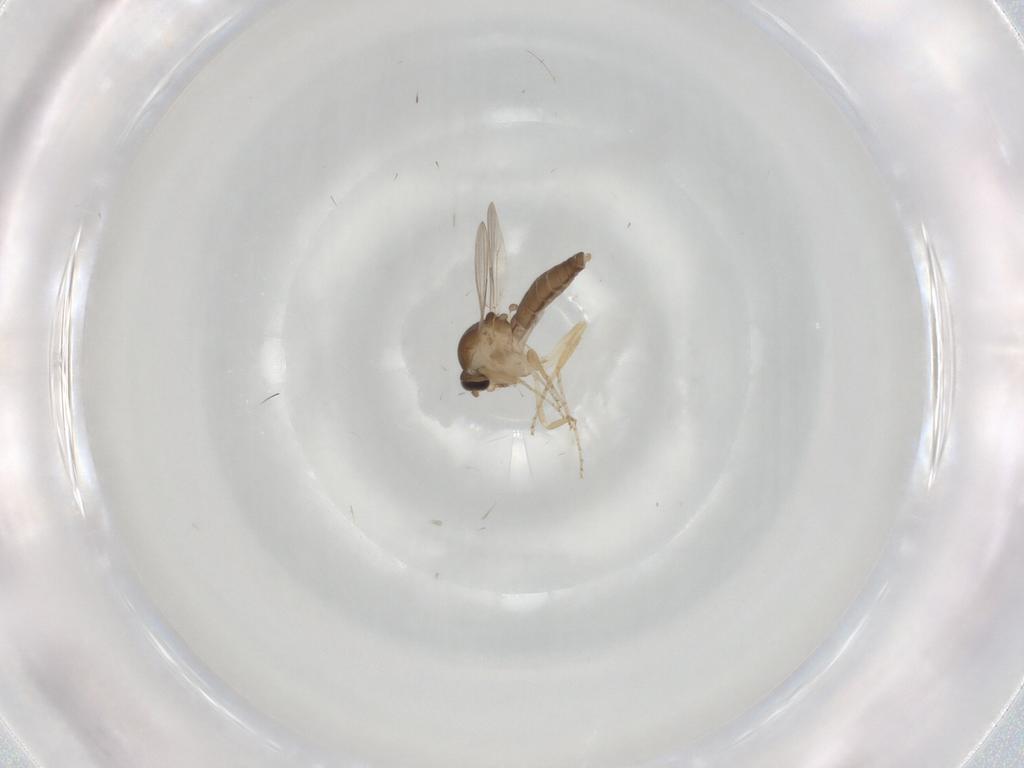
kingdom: Animalia
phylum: Arthropoda
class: Insecta
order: Diptera
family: Ceratopogonidae
